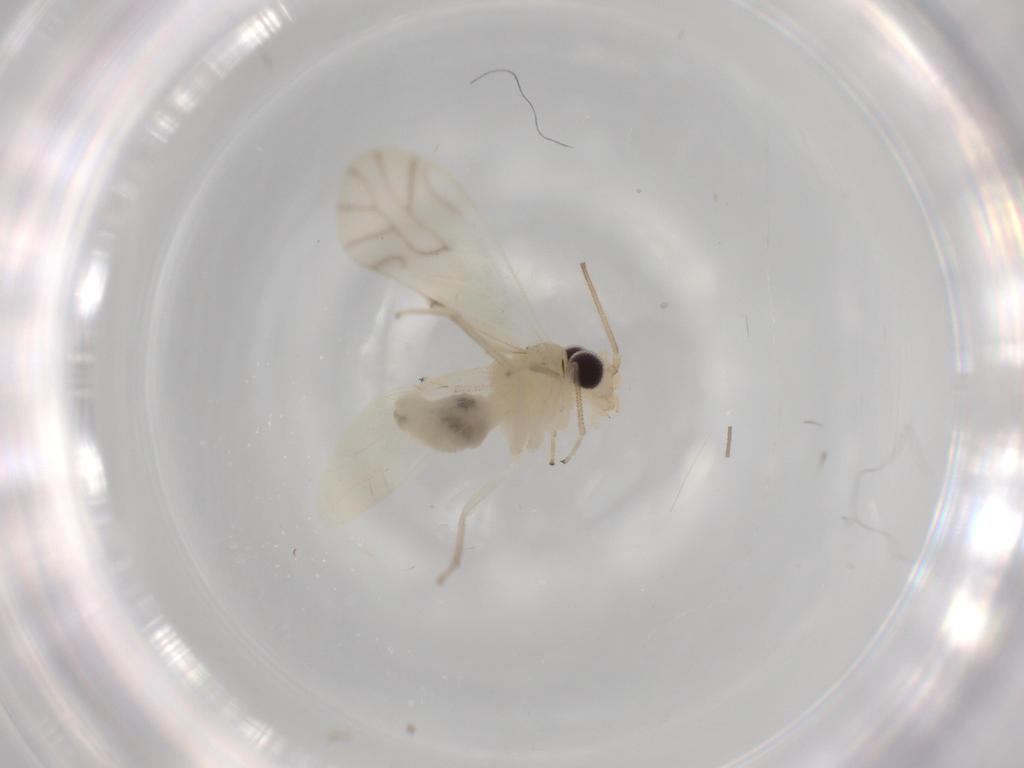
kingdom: Animalia
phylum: Arthropoda
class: Insecta
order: Psocodea
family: Caeciliusidae
